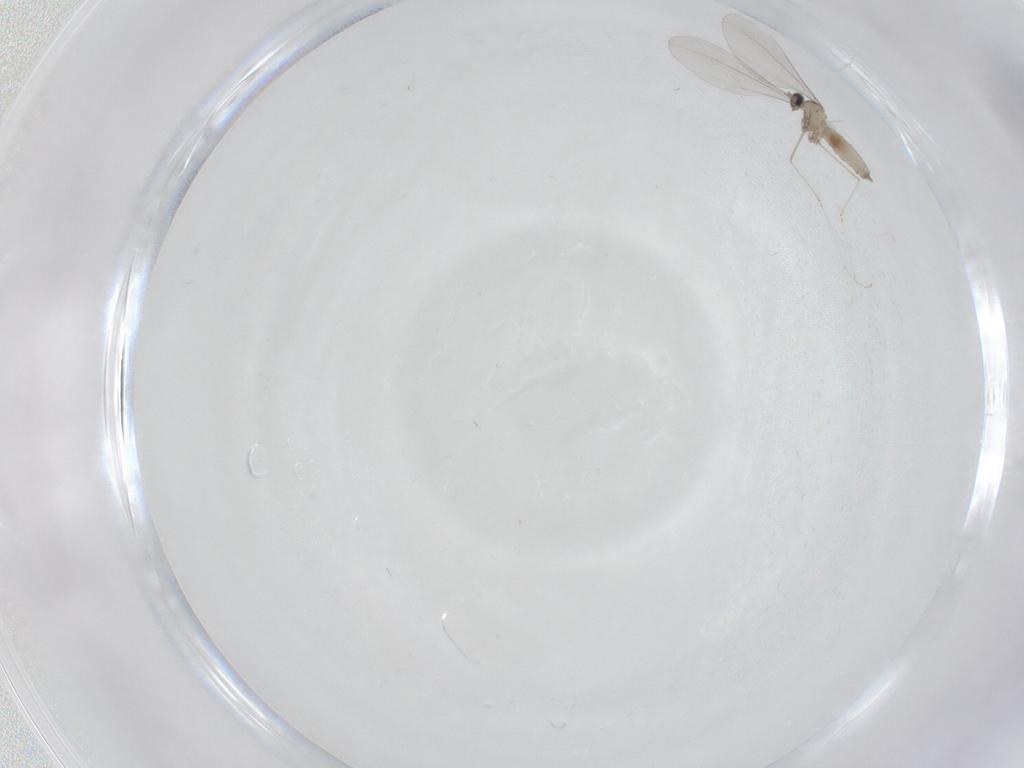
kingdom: Animalia
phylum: Arthropoda
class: Insecta
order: Diptera
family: Cecidomyiidae
